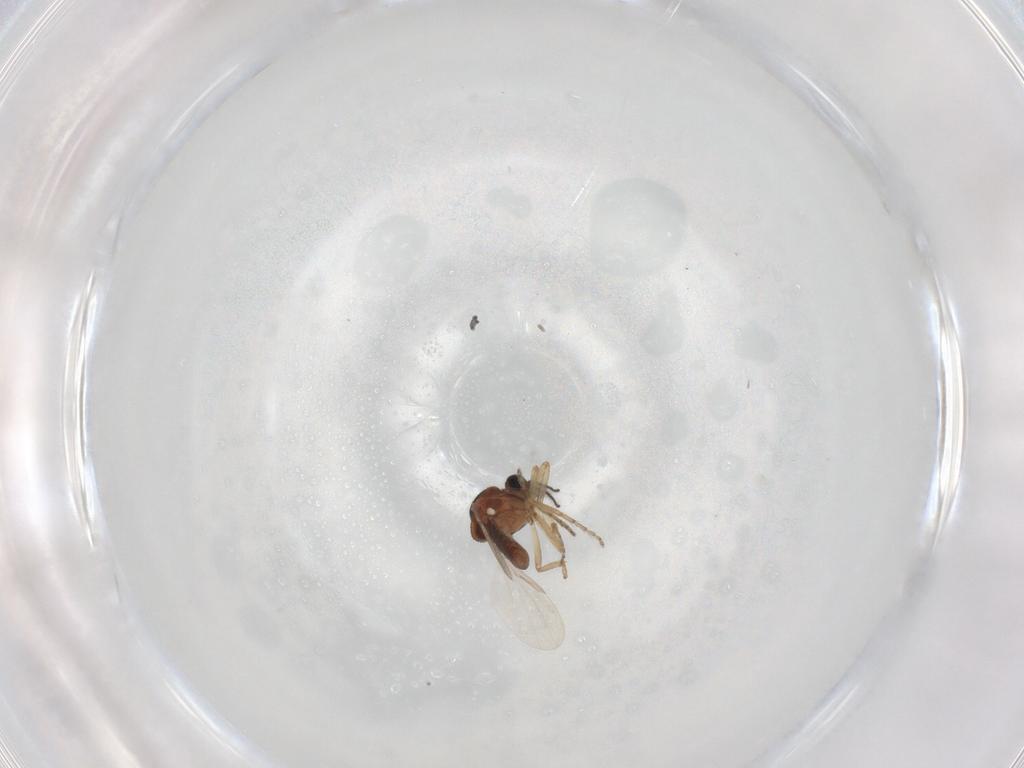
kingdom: Animalia
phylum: Arthropoda
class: Insecta
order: Diptera
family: Ceratopogonidae
